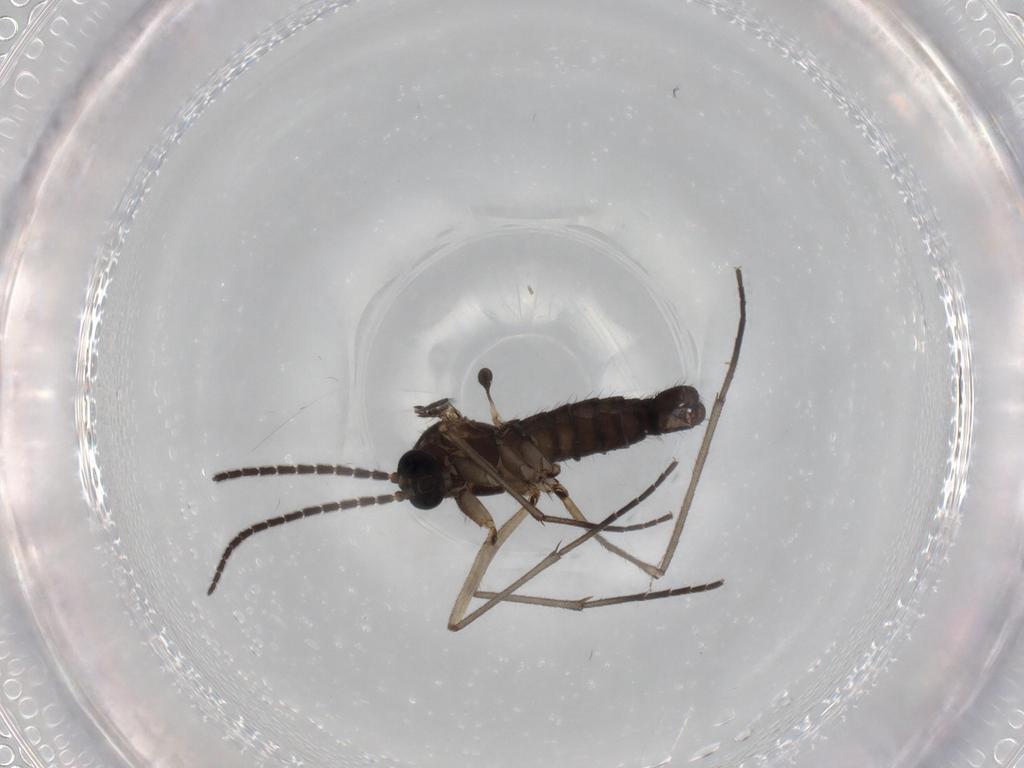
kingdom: Animalia
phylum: Arthropoda
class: Insecta
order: Diptera
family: Sciaridae
